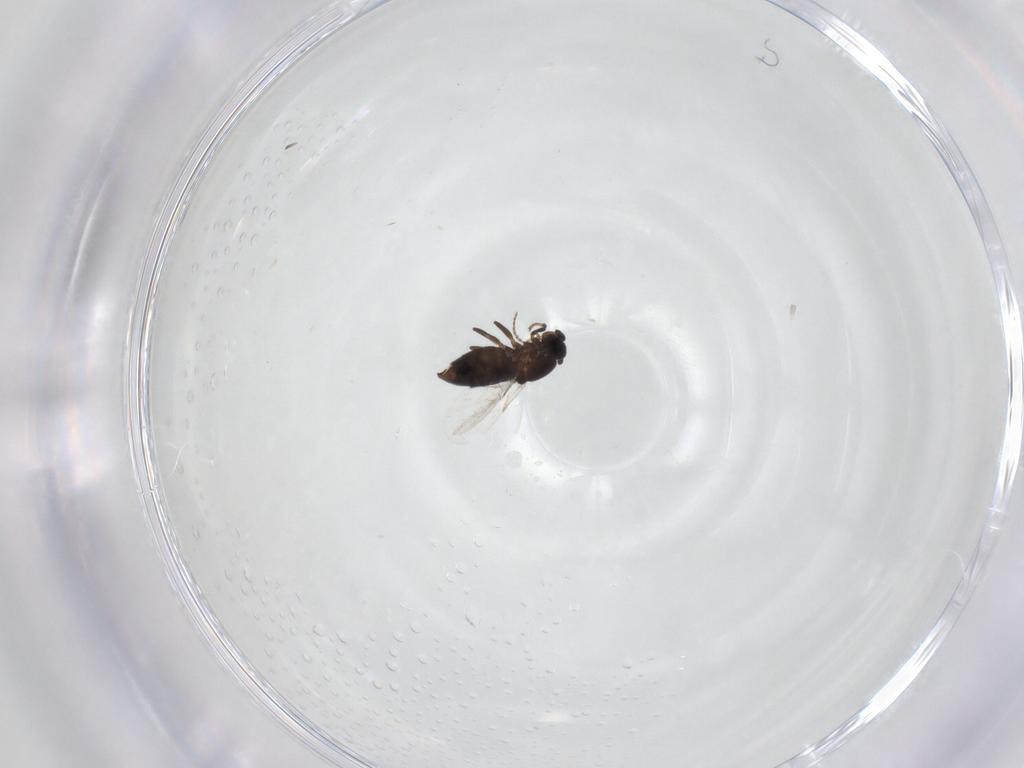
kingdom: Animalia
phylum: Arthropoda
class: Insecta
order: Diptera
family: Scatopsidae
